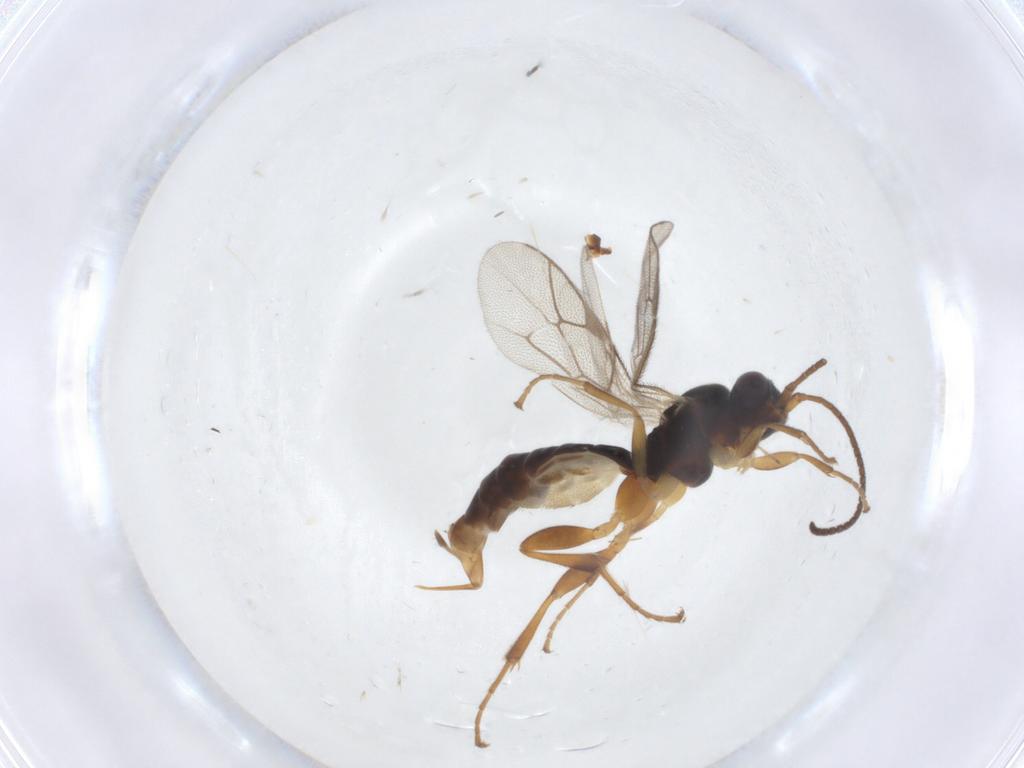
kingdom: Animalia
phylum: Arthropoda
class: Insecta
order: Hymenoptera
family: Ichneumonidae
